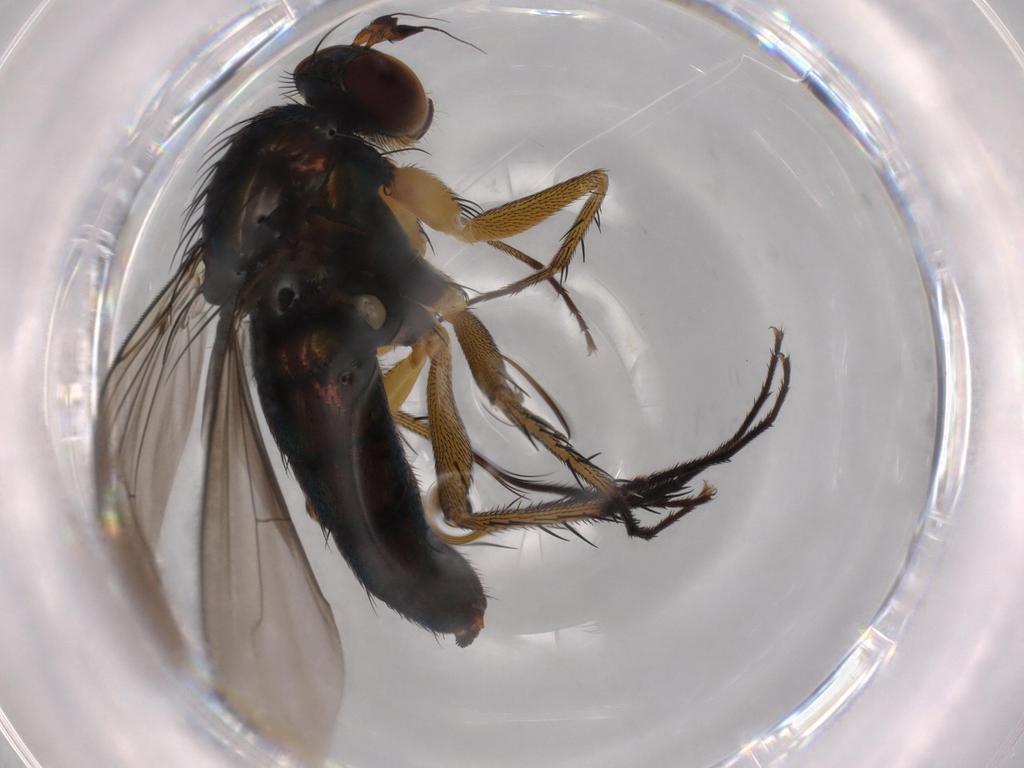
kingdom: Animalia
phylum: Arthropoda
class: Insecta
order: Diptera
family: Dolichopodidae
